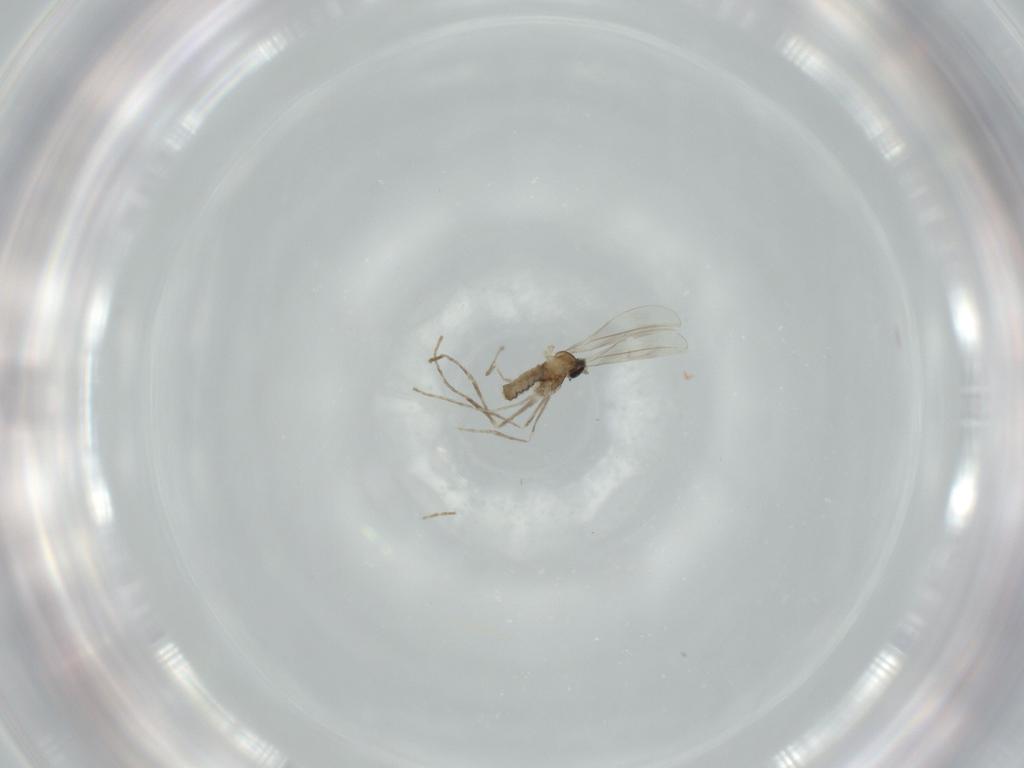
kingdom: Animalia
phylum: Arthropoda
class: Insecta
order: Diptera
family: Cecidomyiidae
